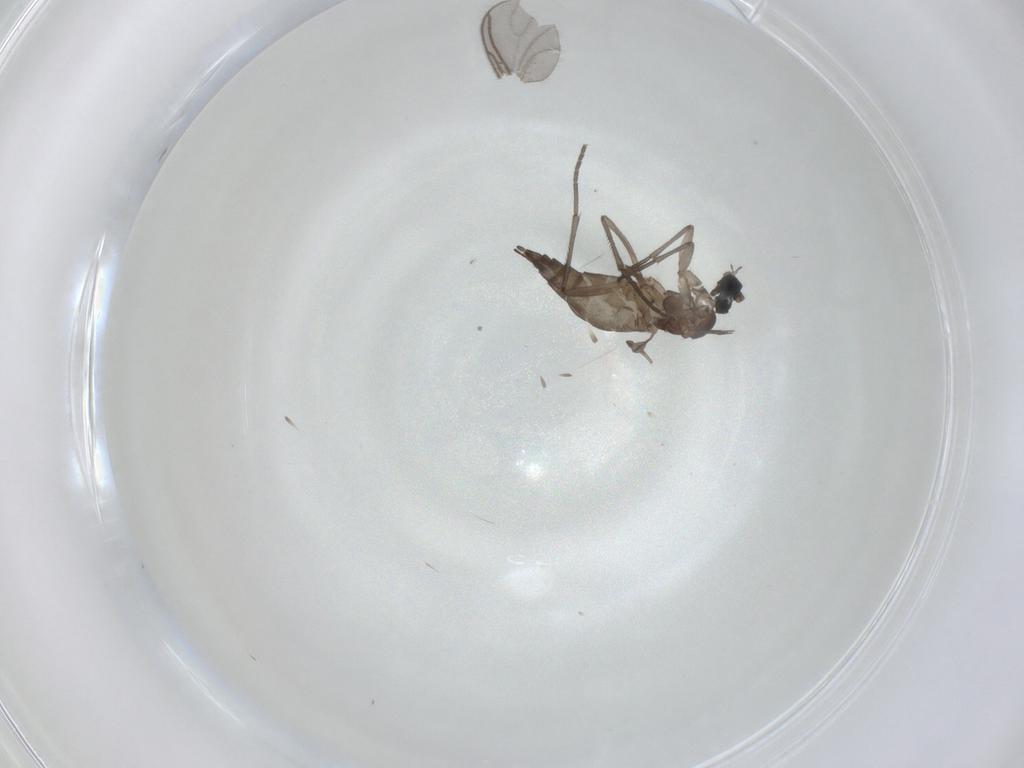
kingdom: Animalia
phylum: Arthropoda
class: Insecta
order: Diptera
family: Sciaridae
